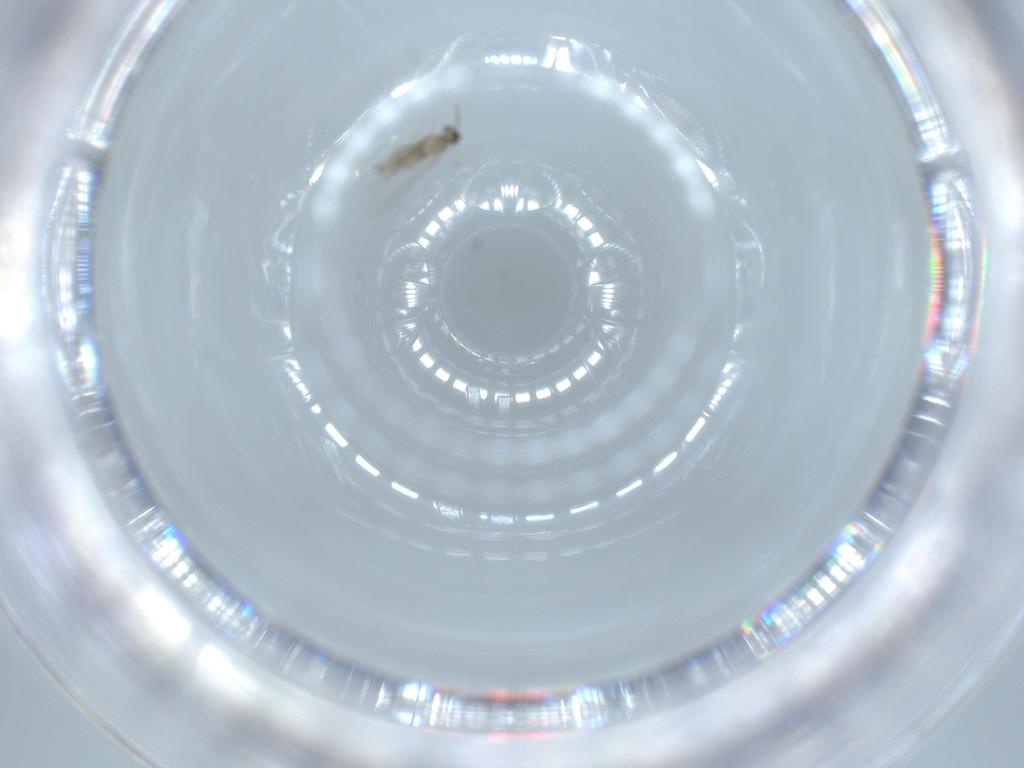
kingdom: Animalia
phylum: Arthropoda
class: Insecta
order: Diptera
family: Cecidomyiidae
